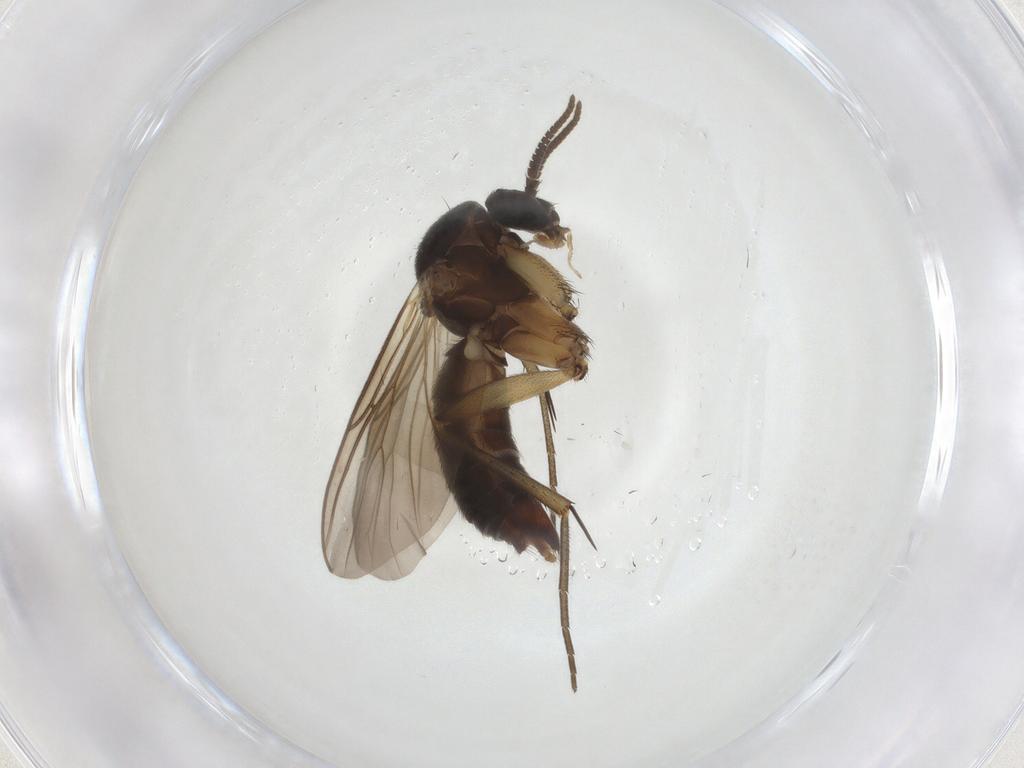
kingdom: Animalia
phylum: Arthropoda
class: Insecta
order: Diptera
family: Mycetophilidae
